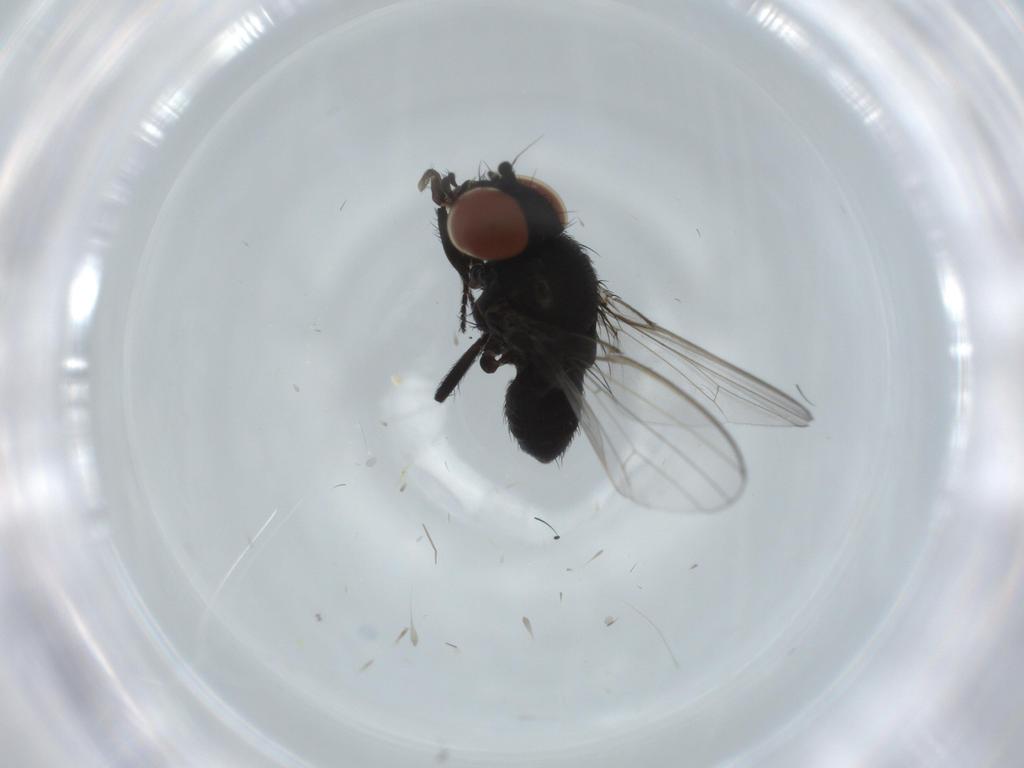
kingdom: Animalia
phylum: Arthropoda
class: Insecta
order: Diptera
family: Milichiidae
